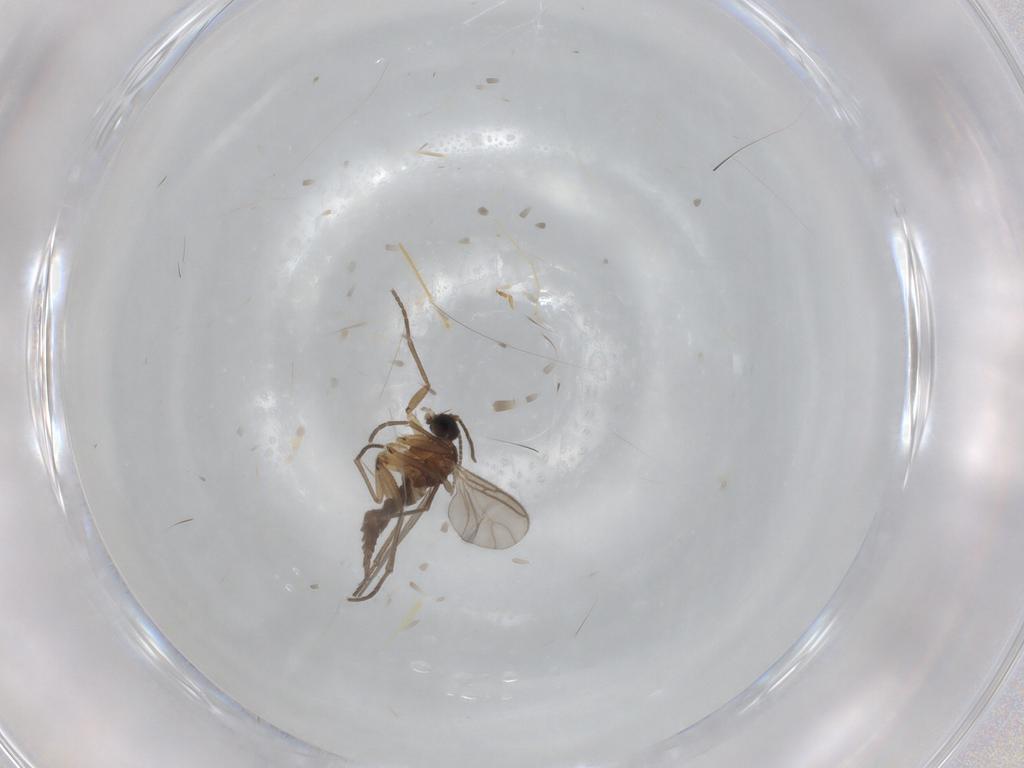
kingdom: Animalia
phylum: Arthropoda
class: Insecta
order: Diptera
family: Sciaridae
